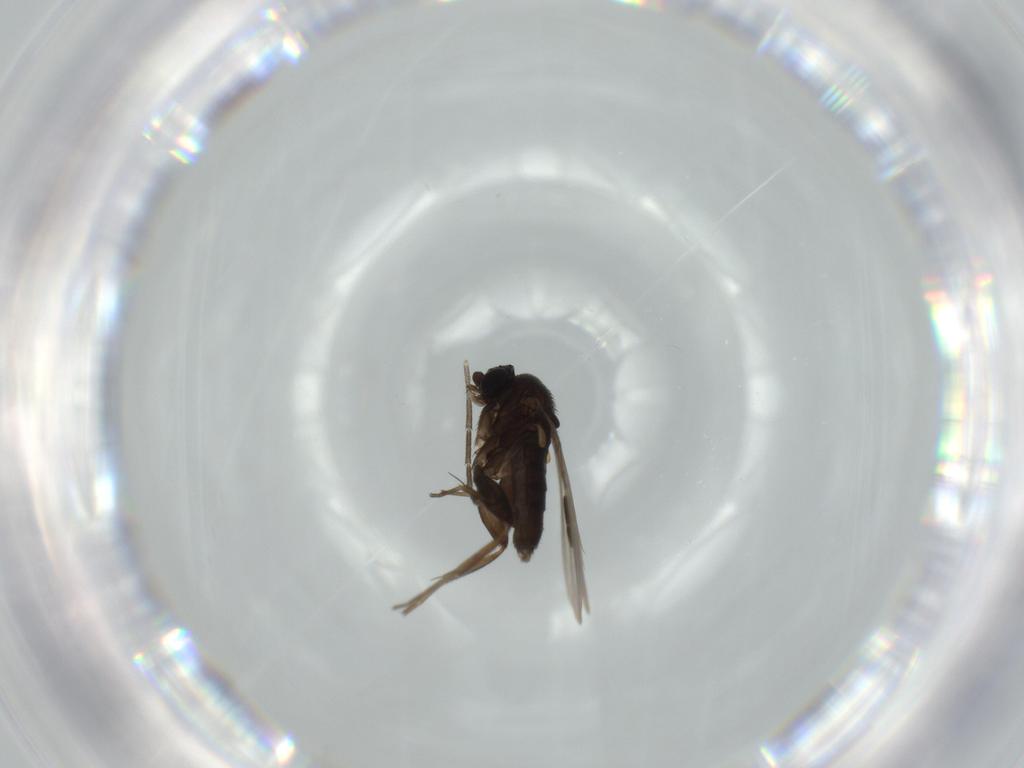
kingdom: Animalia
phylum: Arthropoda
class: Insecta
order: Diptera
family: Phoridae
